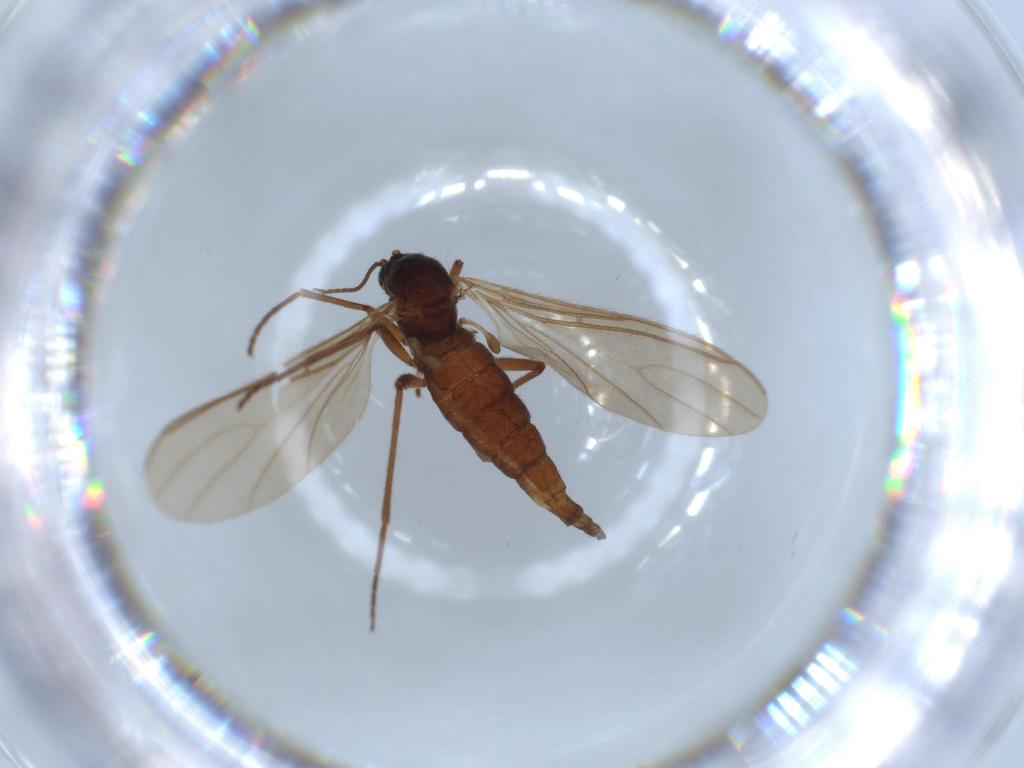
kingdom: Animalia
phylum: Arthropoda
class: Insecta
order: Diptera
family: Sciaridae
